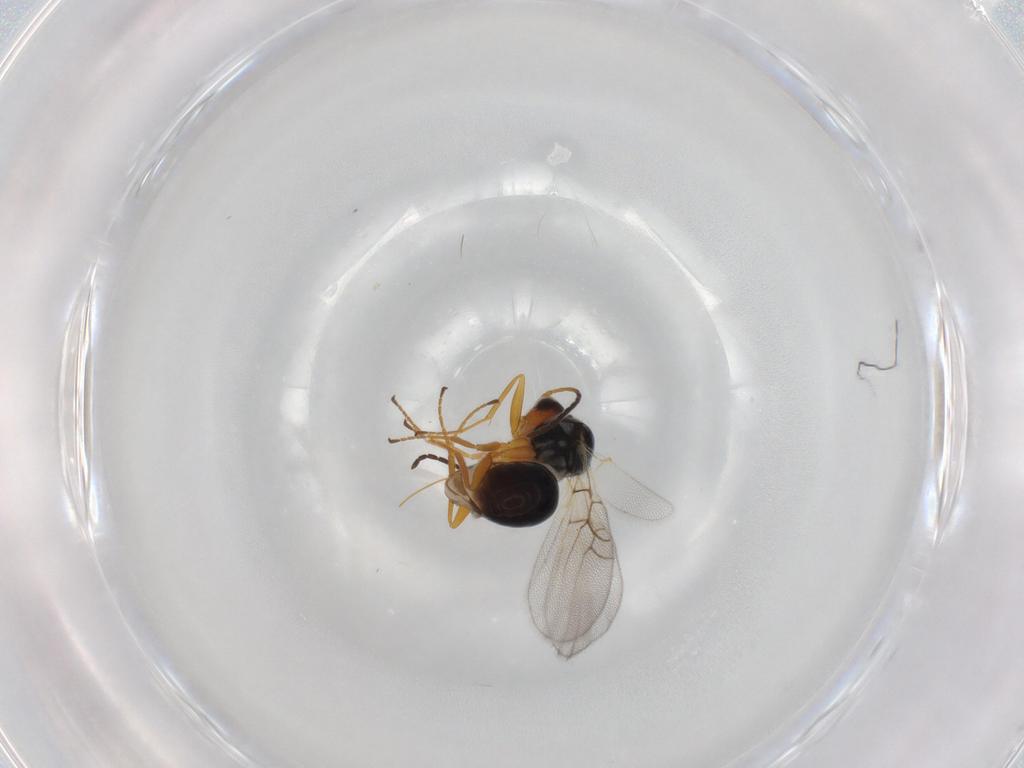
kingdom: Animalia
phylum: Arthropoda
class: Insecta
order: Hymenoptera
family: Figitidae
